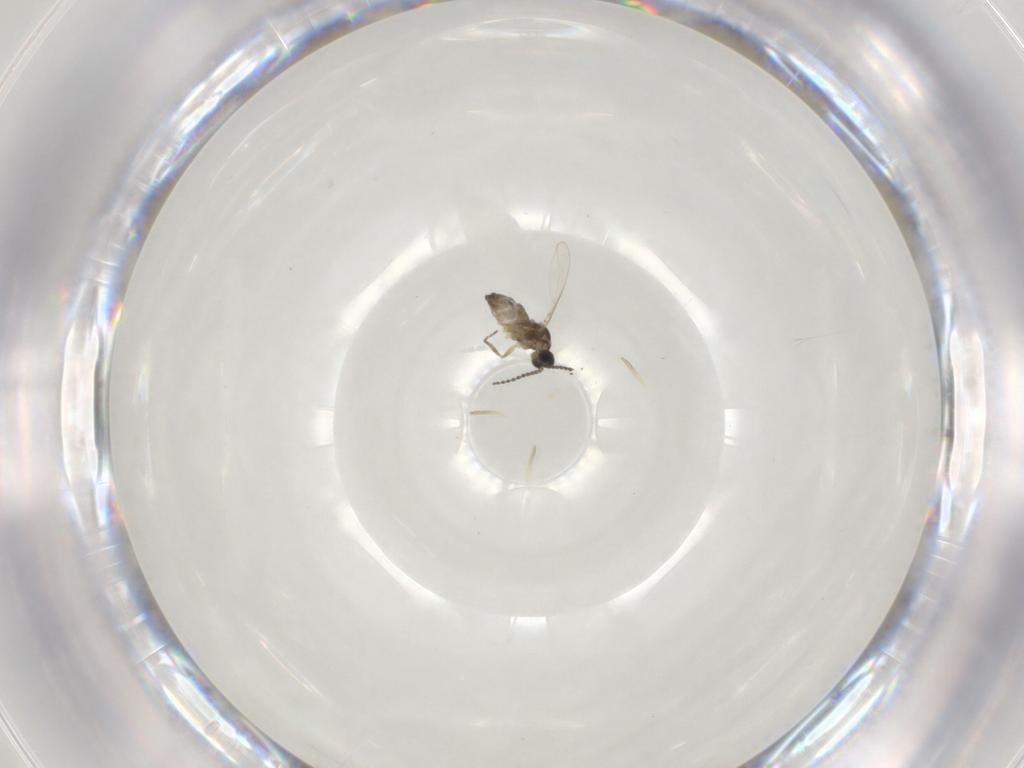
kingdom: Animalia
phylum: Arthropoda
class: Insecta
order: Diptera
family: Cecidomyiidae
